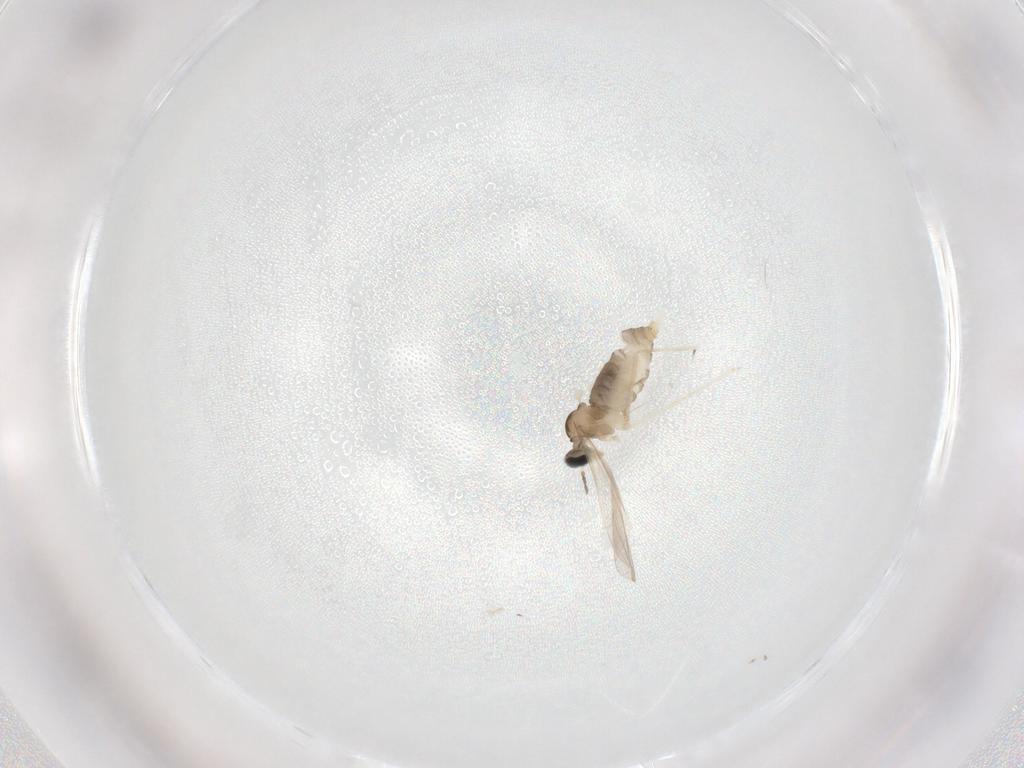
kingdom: Animalia
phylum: Arthropoda
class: Insecta
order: Diptera
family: Cecidomyiidae
